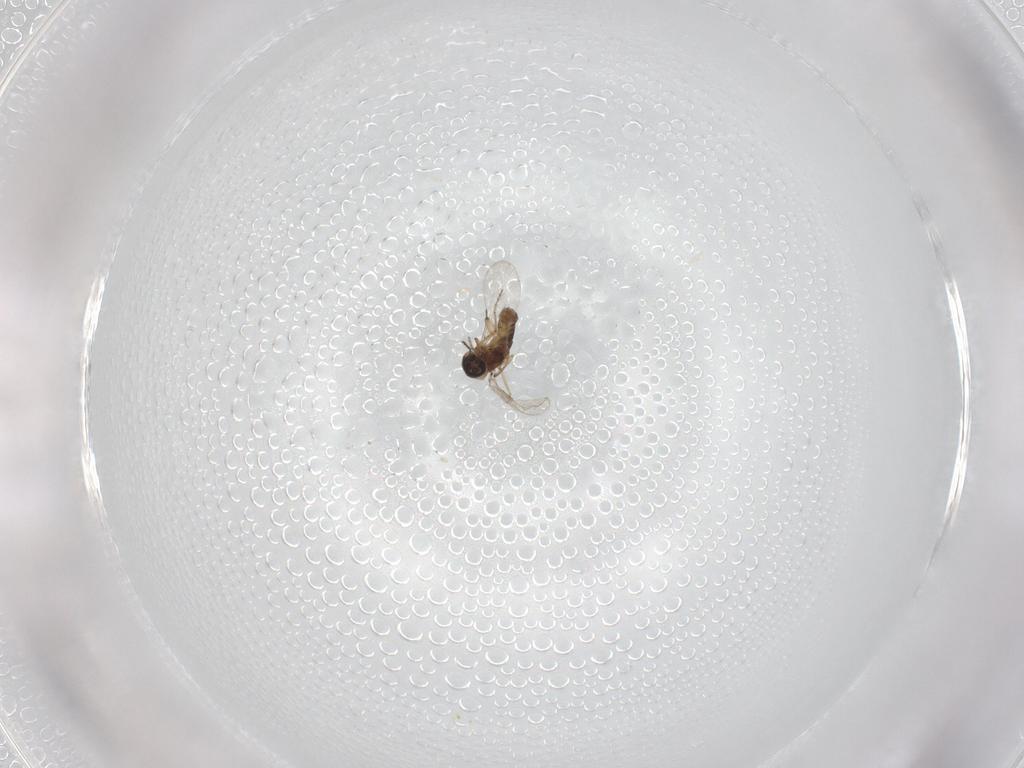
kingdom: Animalia
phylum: Arthropoda
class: Insecta
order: Diptera
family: Ceratopogonidae
